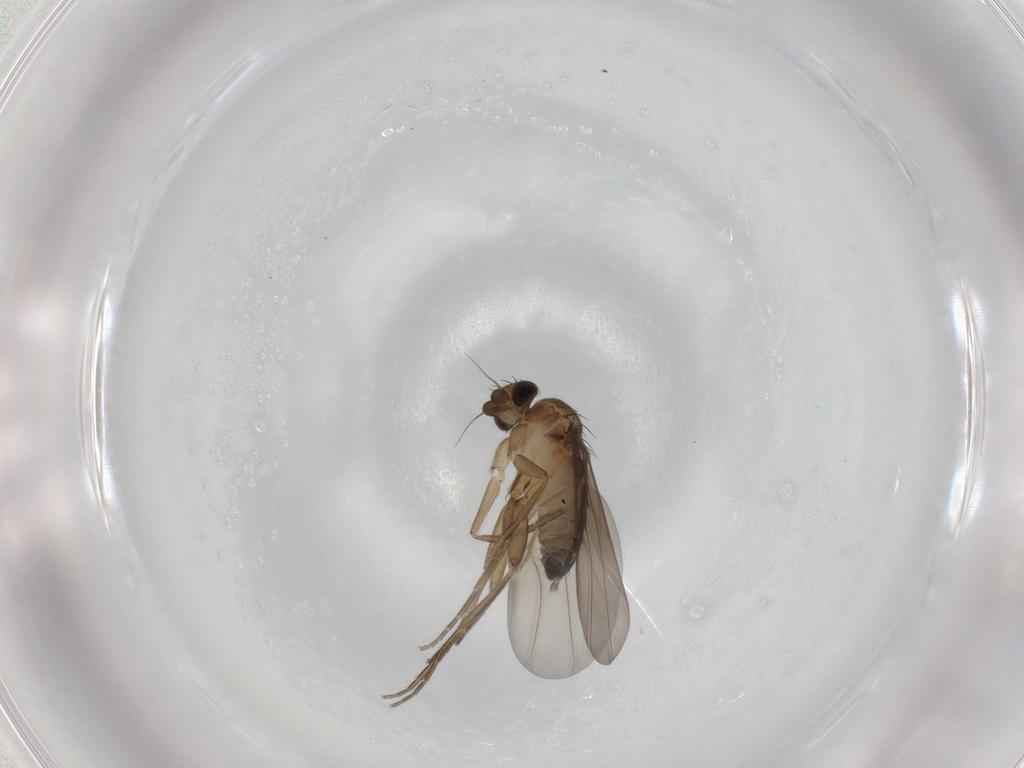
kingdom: Animalia
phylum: Arthropoda
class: Insecta
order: Diptera
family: Phoridae
